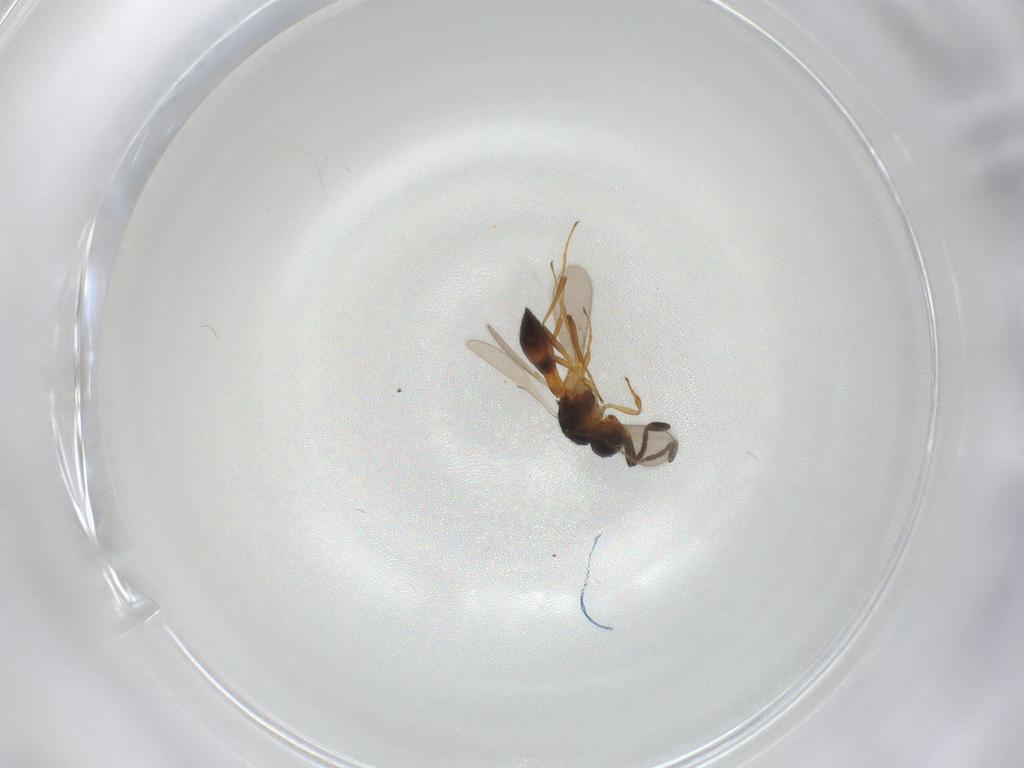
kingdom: Animalia
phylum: Arthropoda
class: Insecta
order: Hymenoptera
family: Scelionidae
